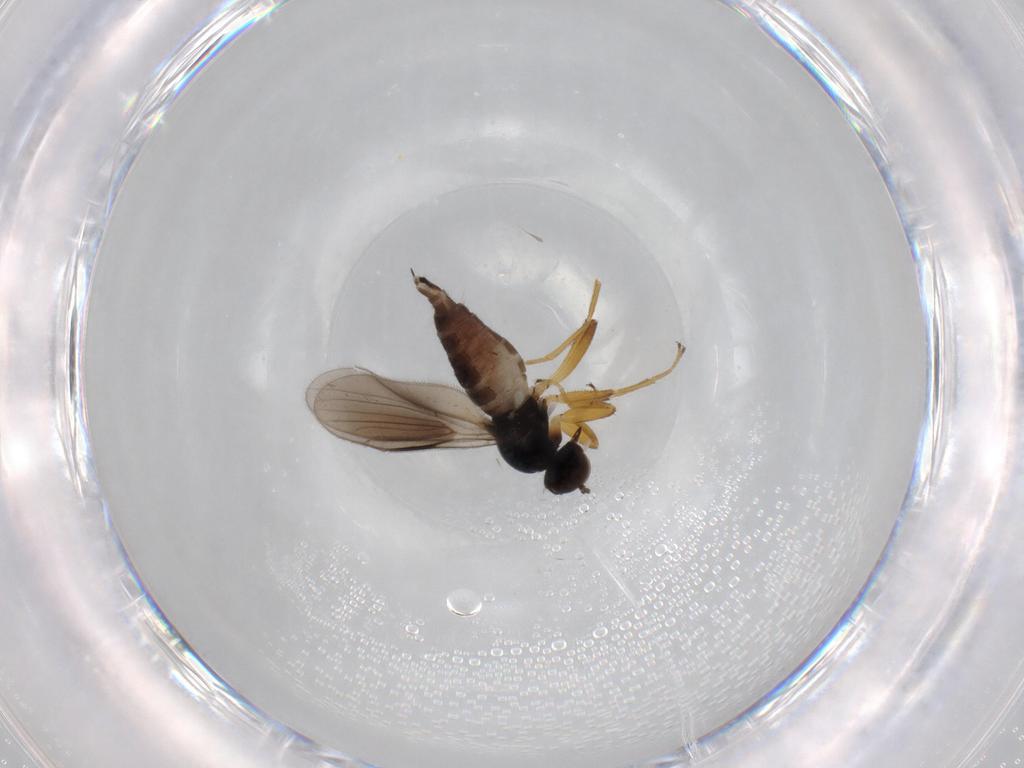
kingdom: Animalia
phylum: Arthropoda
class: Insecta
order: Diptera
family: Hybotidae
